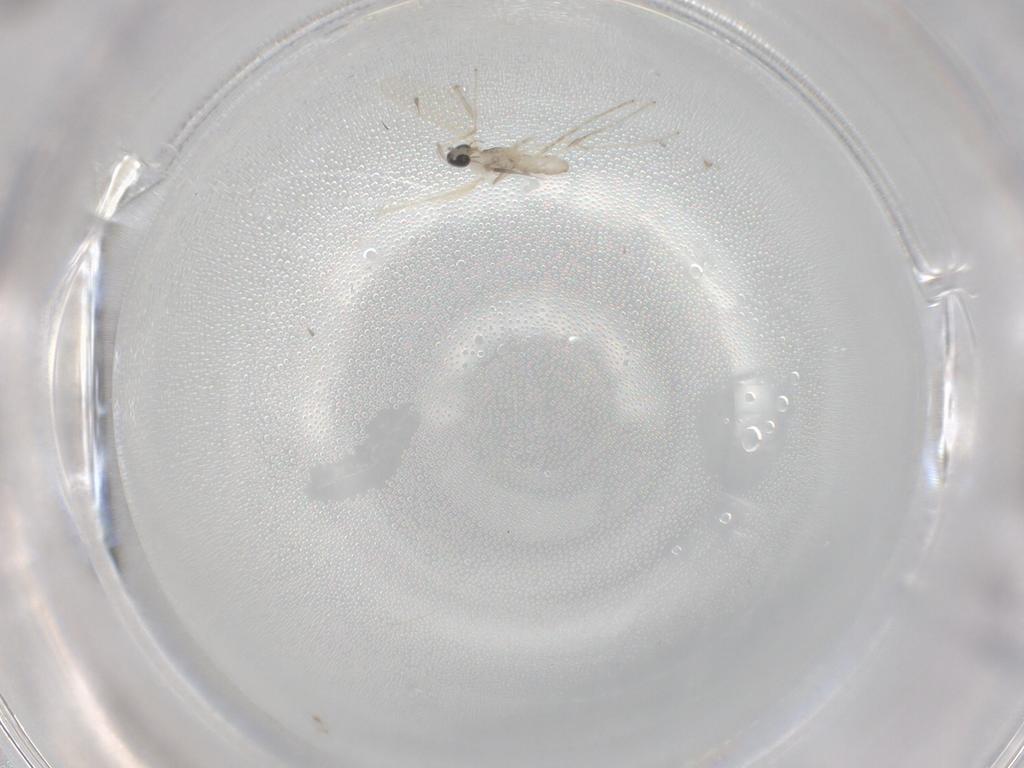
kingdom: Animalia
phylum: Arthropoda
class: Insecta
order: Diptera
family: Cecidomyiidae
